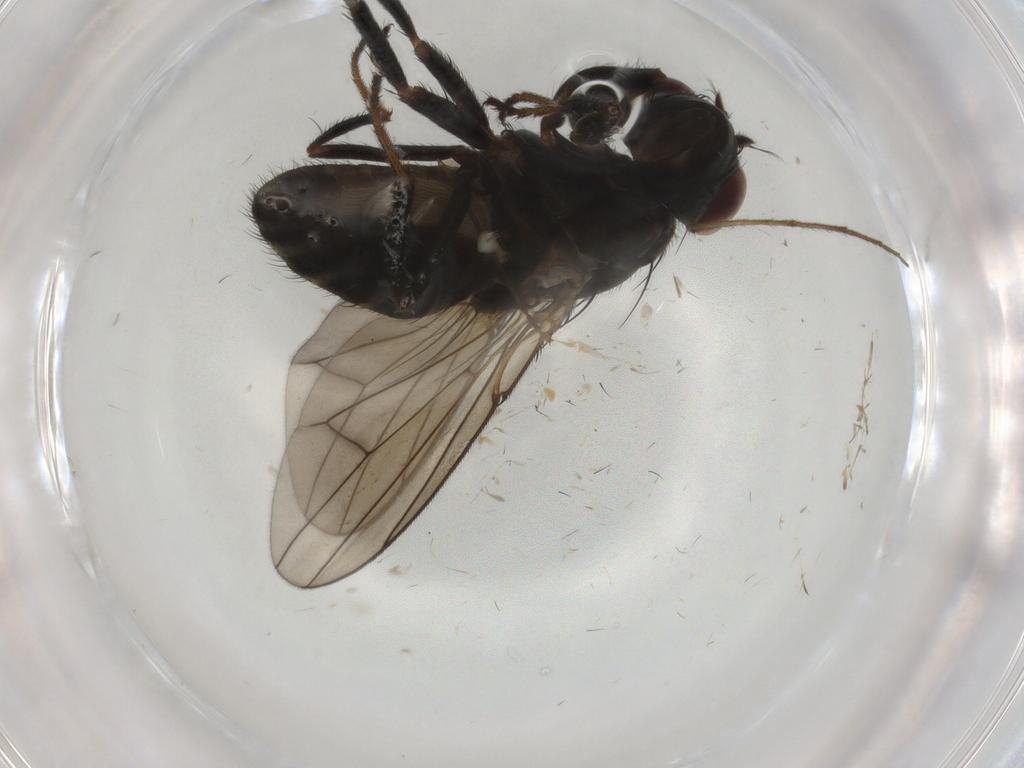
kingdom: Animalia
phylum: Arthropoda
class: Insecta
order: Diptera
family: Ephydridae
